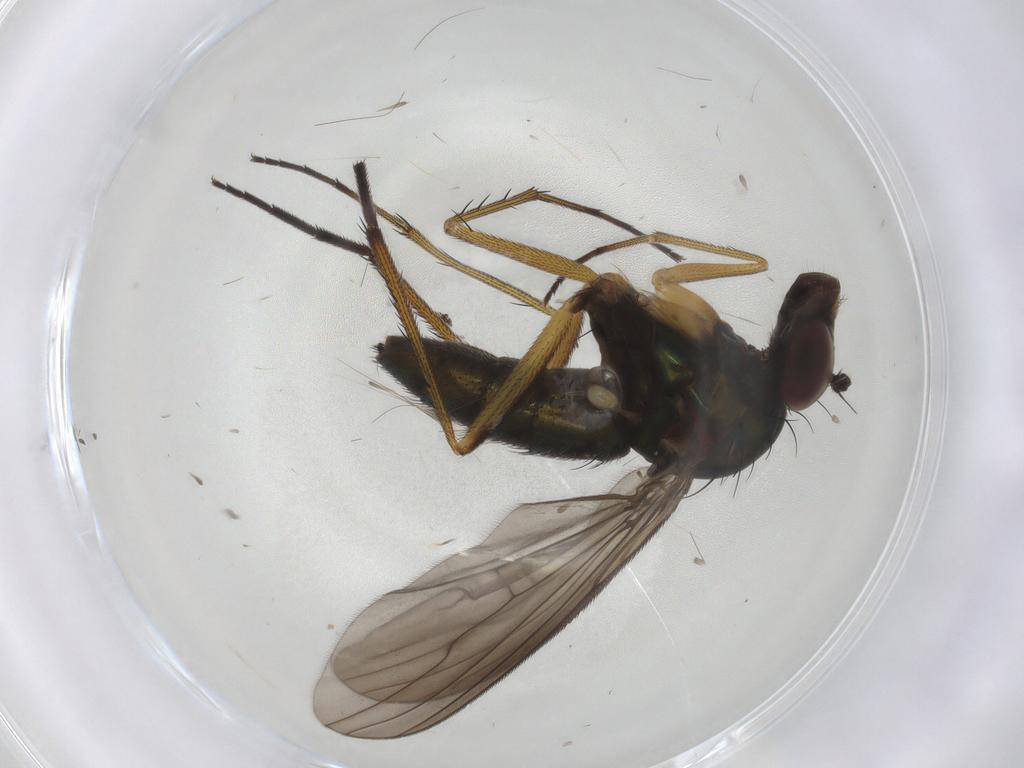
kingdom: Animalia
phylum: Arthropoda
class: Insecta
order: Diptera
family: Dolichopodidae
